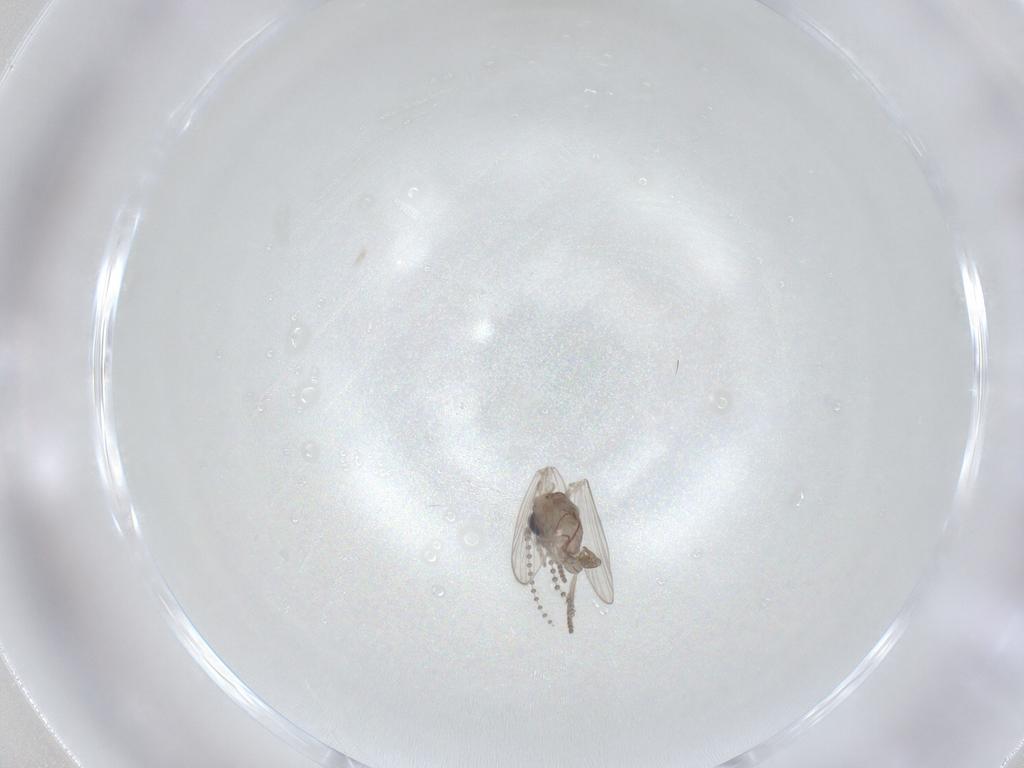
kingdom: Animalia
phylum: Arthropoda
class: Insecta
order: Diptera
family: Psychodidae
